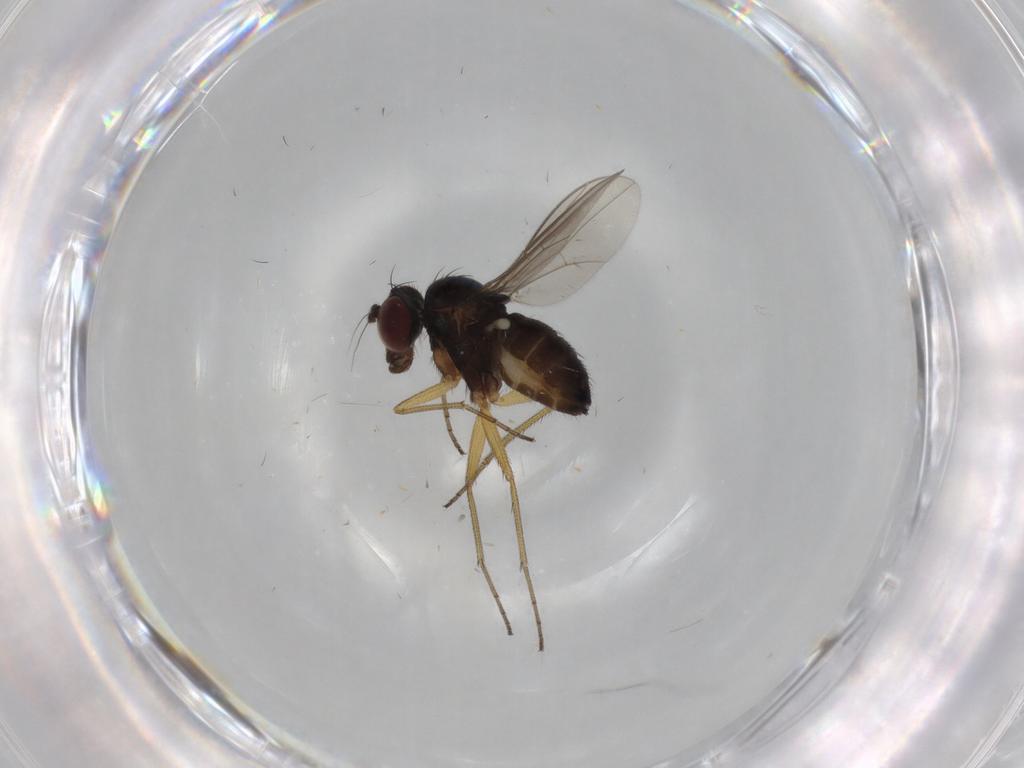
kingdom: Animalia
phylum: Arthropoda
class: Insecta
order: Diptera
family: Dolichopodidae
